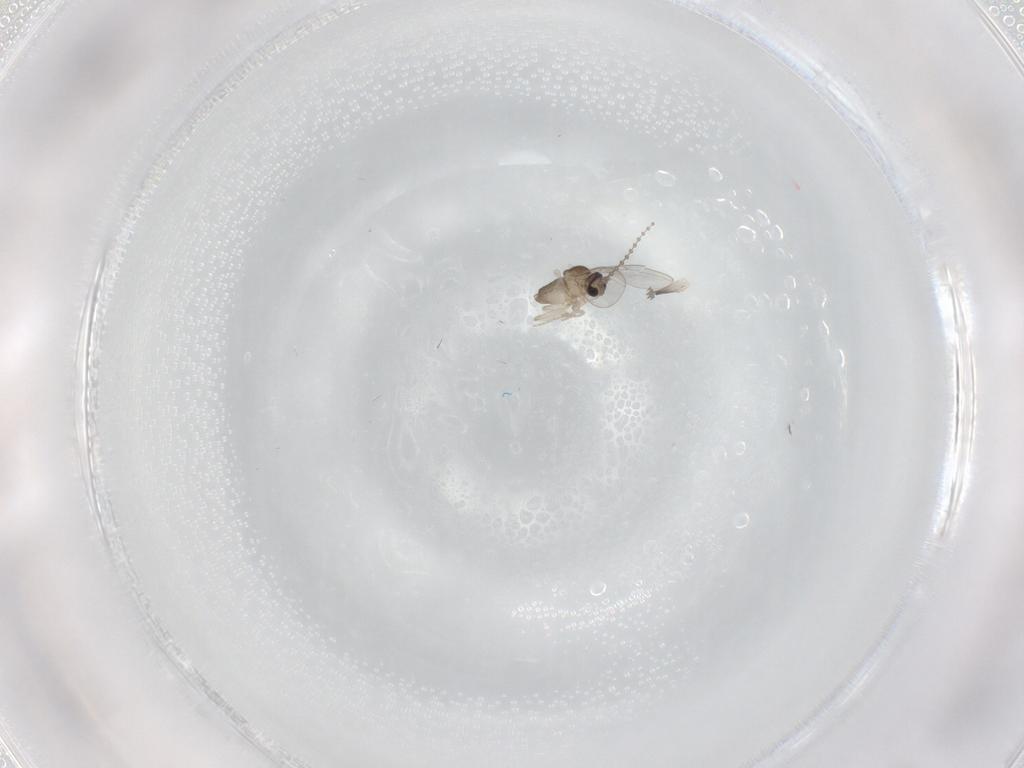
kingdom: Animalia
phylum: Arthropoda
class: Insecta
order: Diptera
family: Cecidomyiidae
